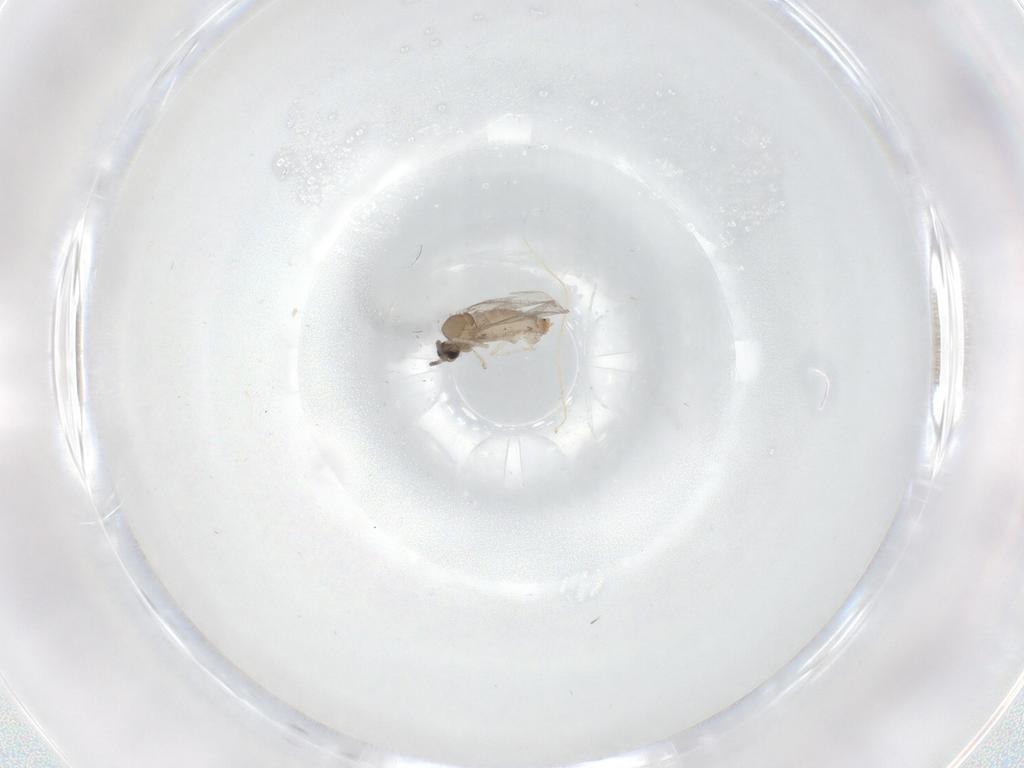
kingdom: Animalia
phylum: Arthropoda
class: Insecta
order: Diptera
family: Cecidomyiidae
